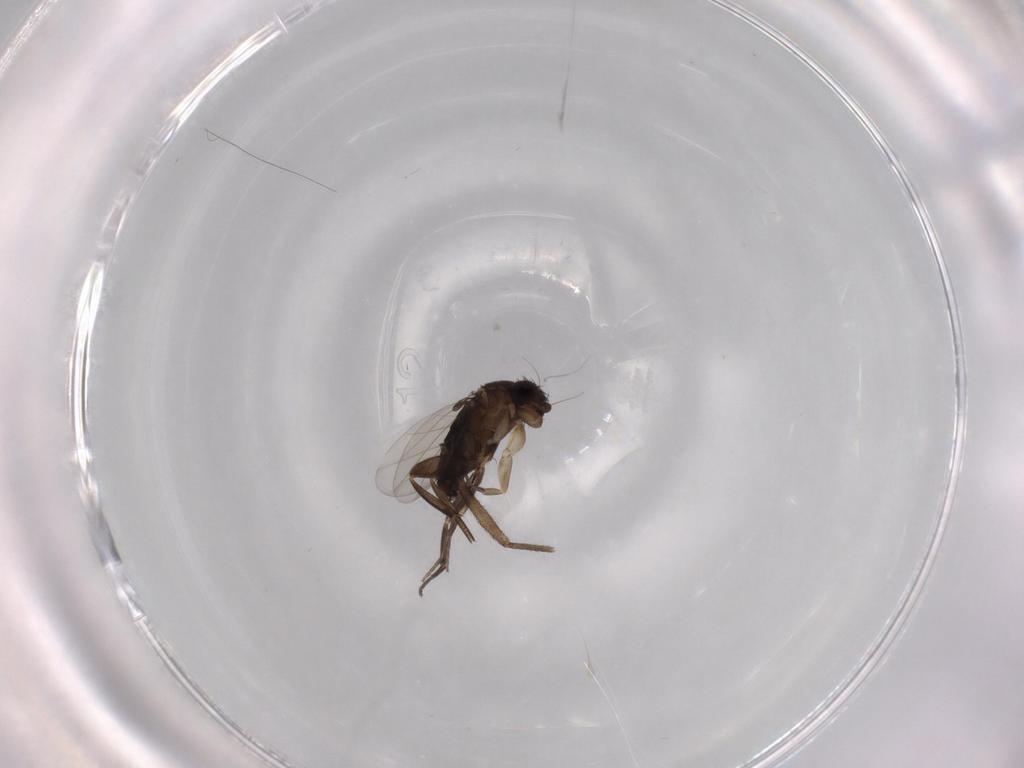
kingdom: Animalia
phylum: Arthropoda
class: Insecta
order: Diptera
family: Phoridae
